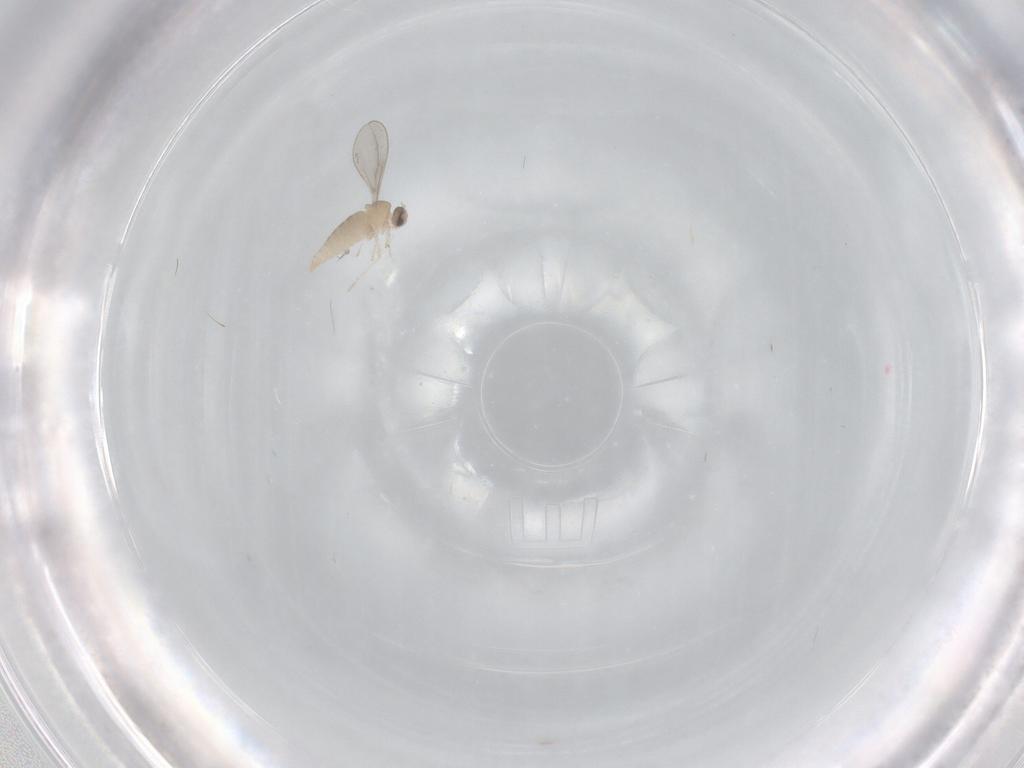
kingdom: Animalia
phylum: Arthropoda
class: Insecta
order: Diptera
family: Cecidomyiidae
